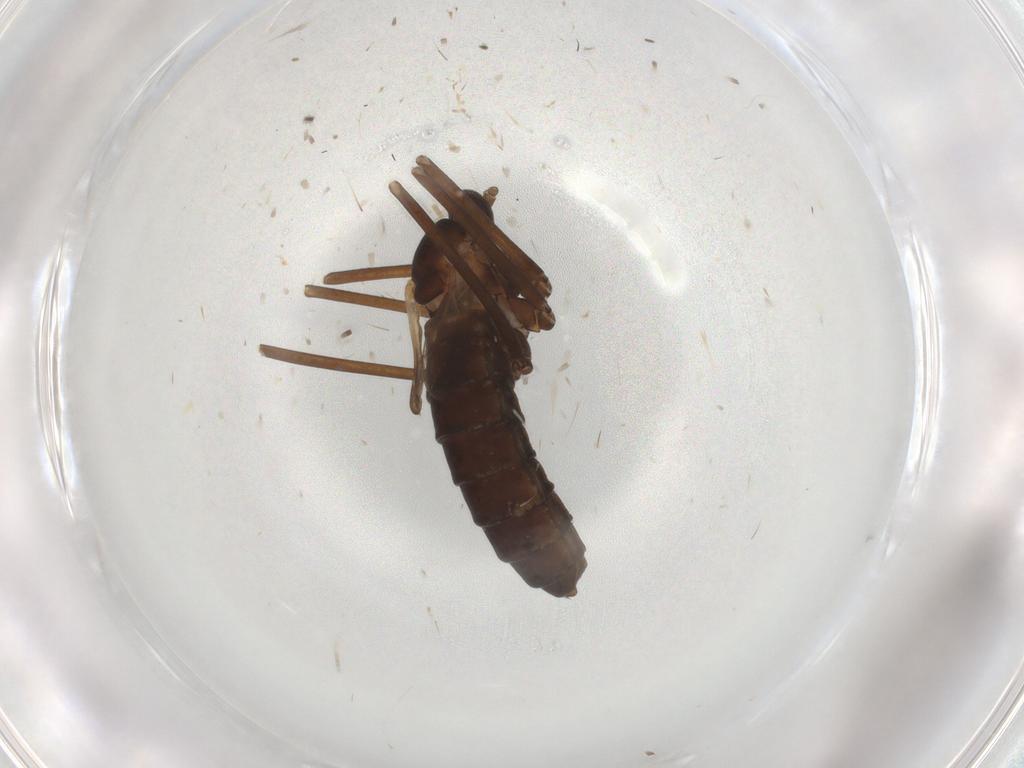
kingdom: Animalia
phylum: Arthropoda
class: Insecta
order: Diptera
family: Cecidomyiidae
